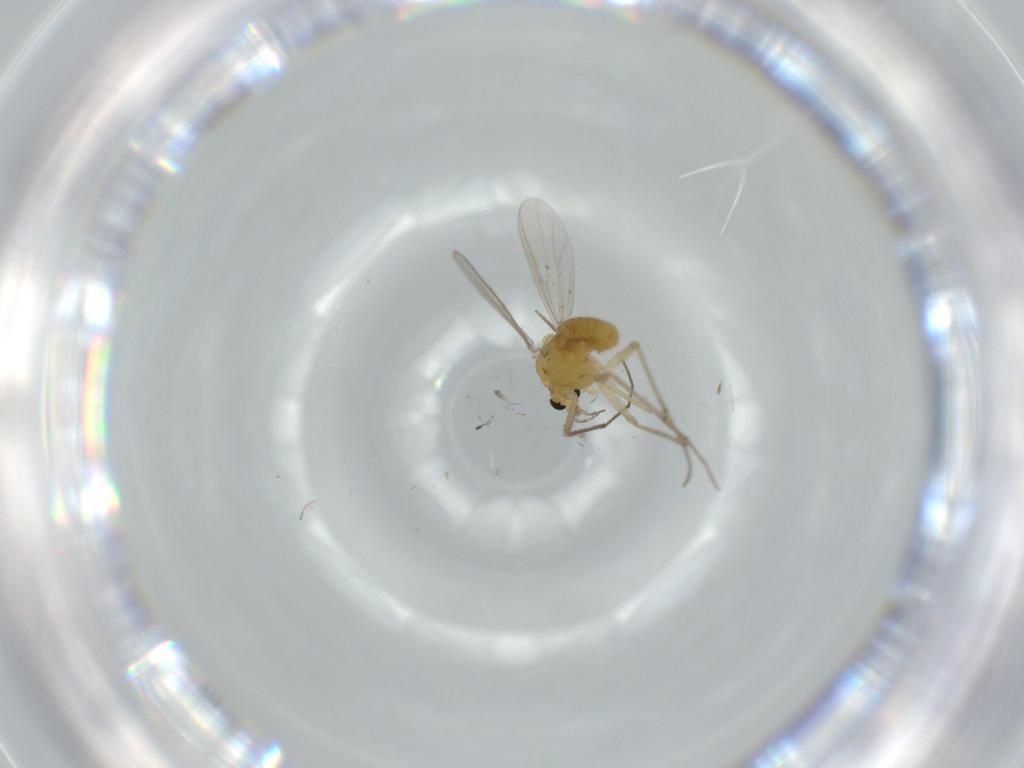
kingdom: Animalia
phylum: Arthropoda
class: Insecta
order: Diptera
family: Chironomidae
